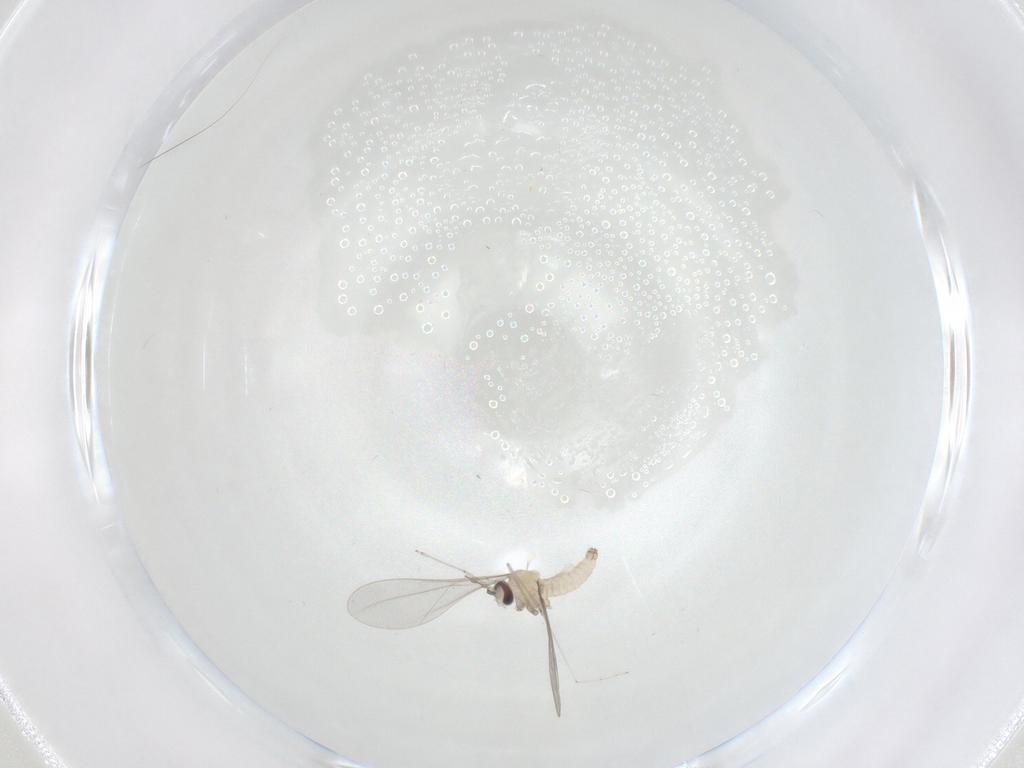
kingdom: Animalia
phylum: Arthropoda
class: Insecta
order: Diptera
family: Cecidomyiidae
